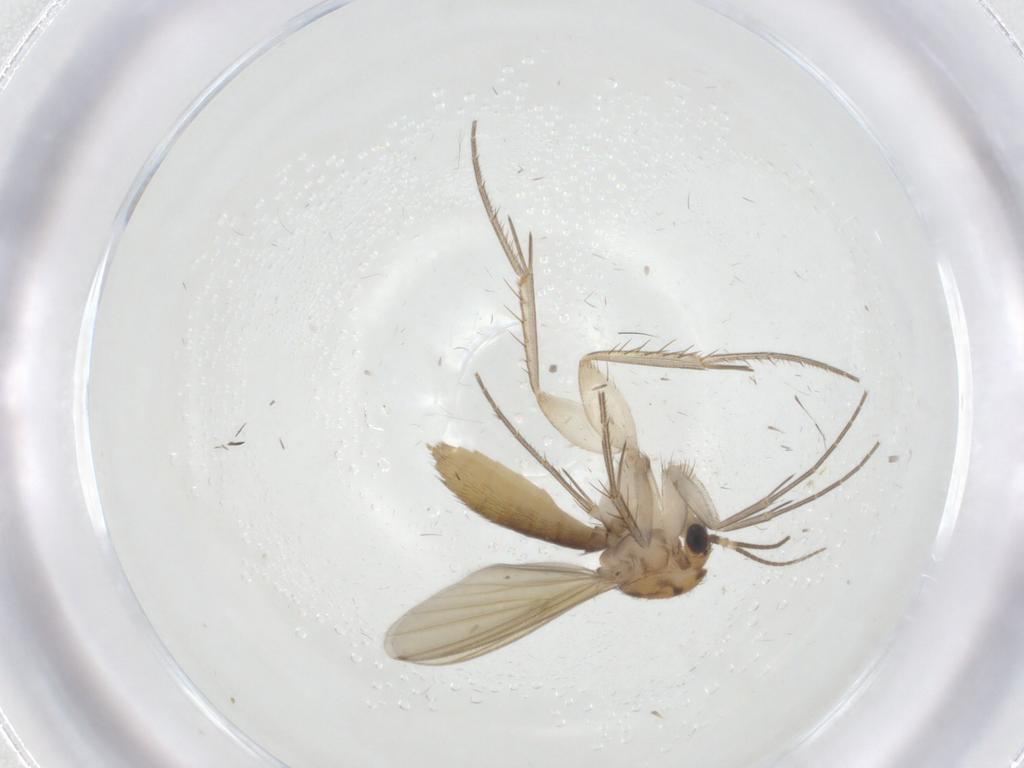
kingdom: Animalia
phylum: Arthropoda
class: Insecta
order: Diptera
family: Mycetophilidae
